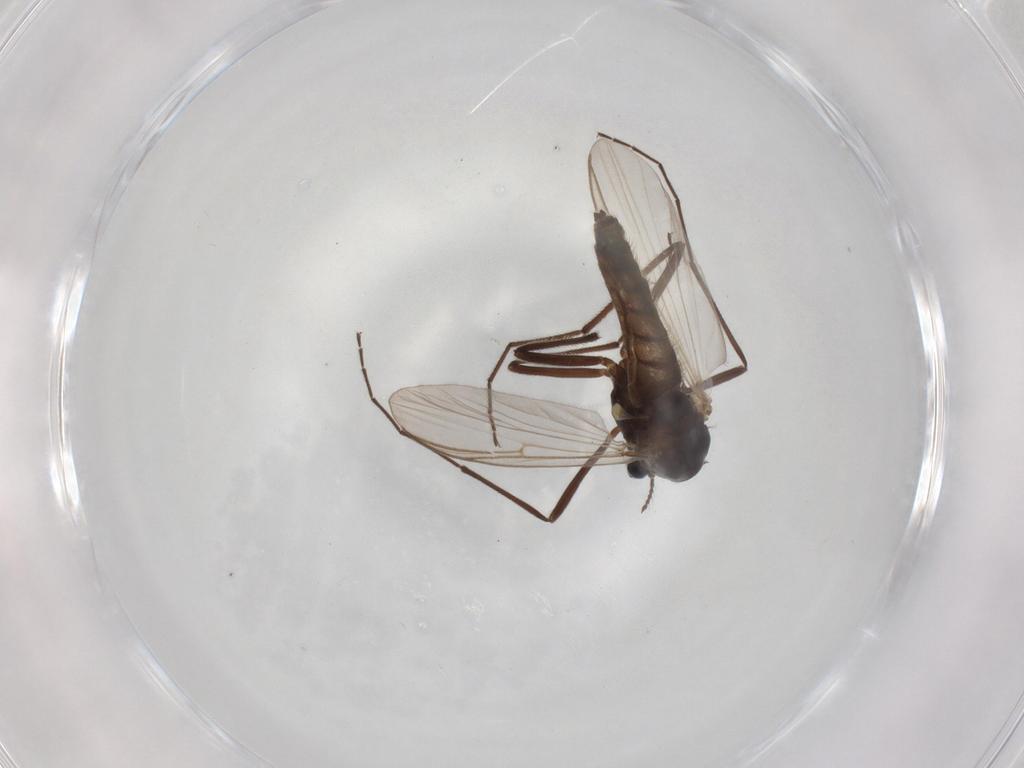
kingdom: Animalia
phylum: Arthropoda
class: Insecta
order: Diptera
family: Chironomidae
